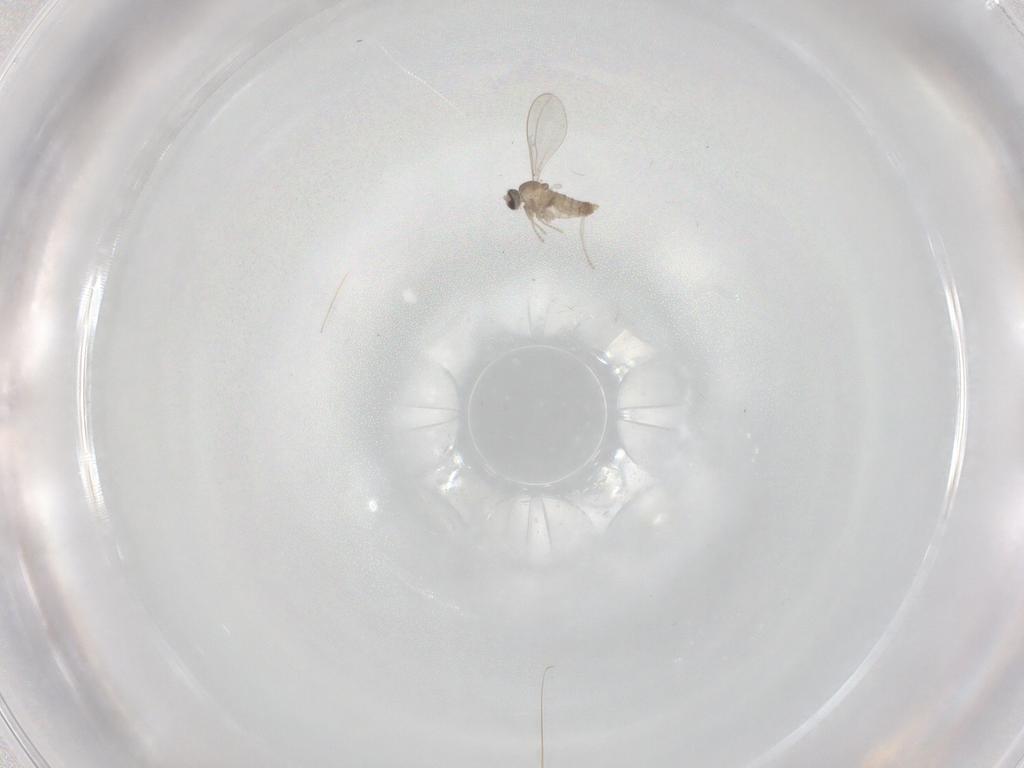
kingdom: Animalia
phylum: Arthropoda
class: Insecta
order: Diptera
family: Cecidomyiidae
